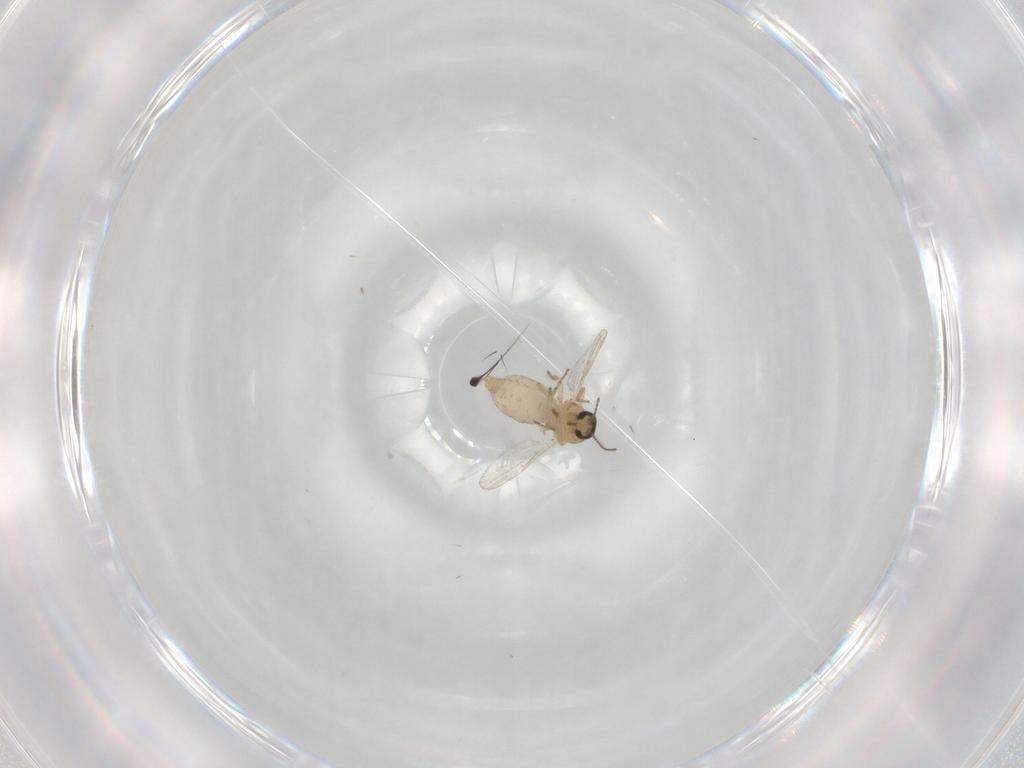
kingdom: Animalia
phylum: Arthropoda
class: Insecta
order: Diptera
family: Ceratopogonidae
